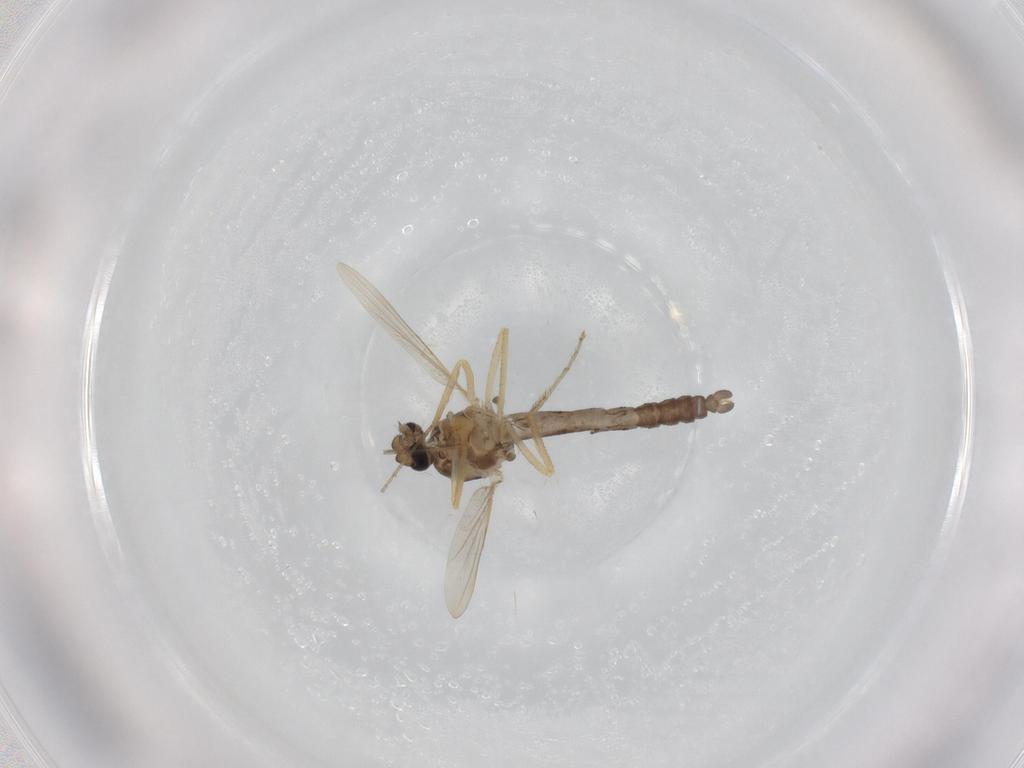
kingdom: Animalia
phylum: Arthropoda
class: Insecta
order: Diptera
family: Ceratopogonidae
